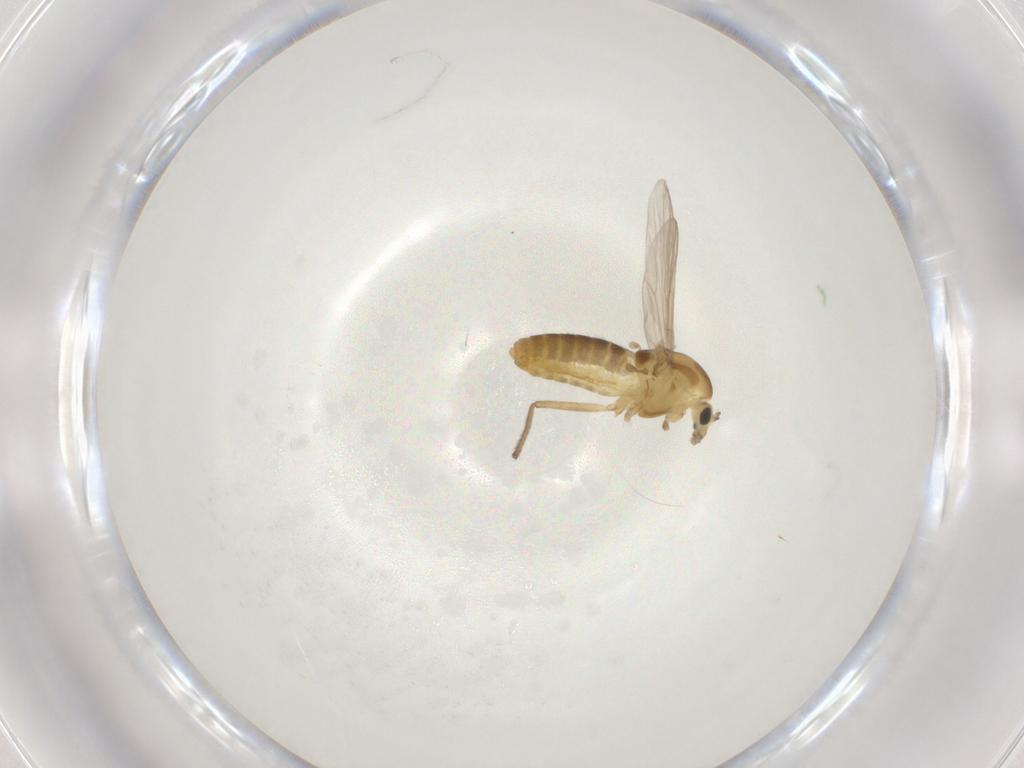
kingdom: Animalia
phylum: Arthropoda
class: Insecta
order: Diptera
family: Chironomidae
